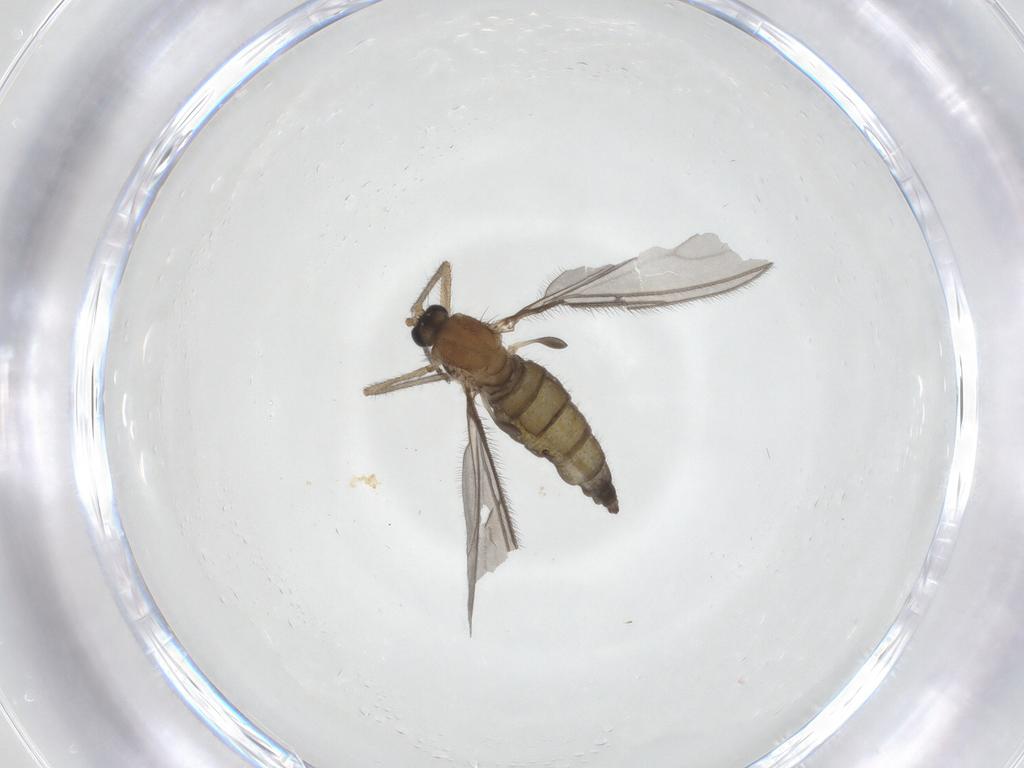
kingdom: Animalia
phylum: Arthropoda
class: Insecta
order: Diptera
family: Sciaridae
